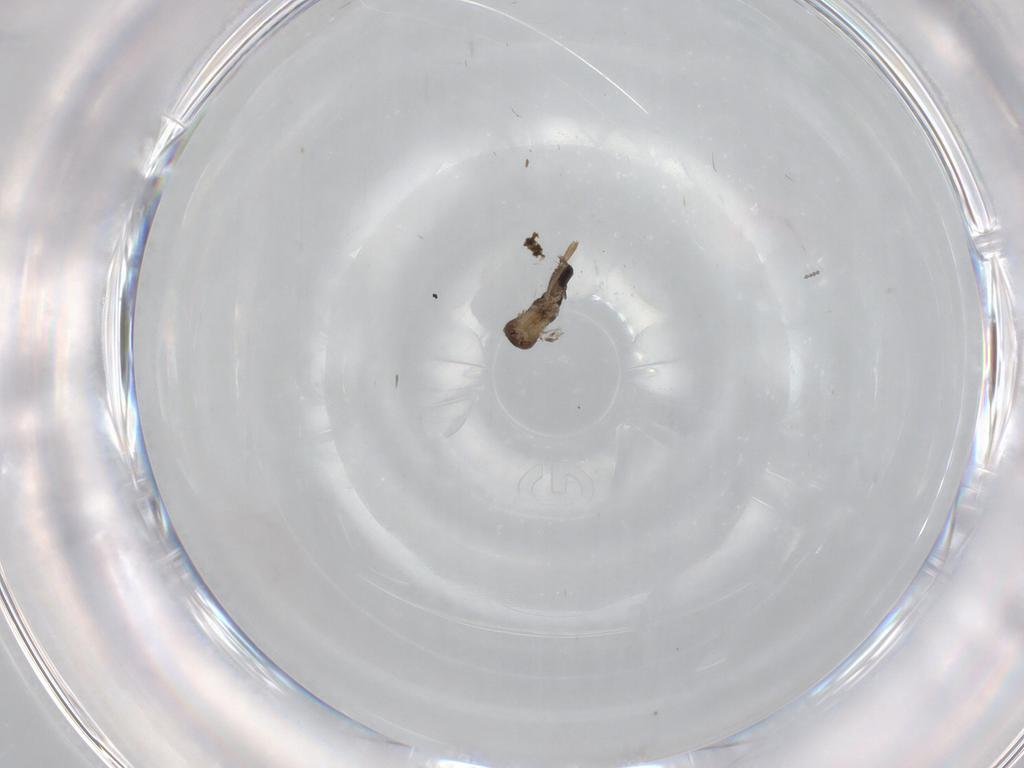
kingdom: Animalia
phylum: Arthropoda
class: Insecta
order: Diptera
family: Phoridae
